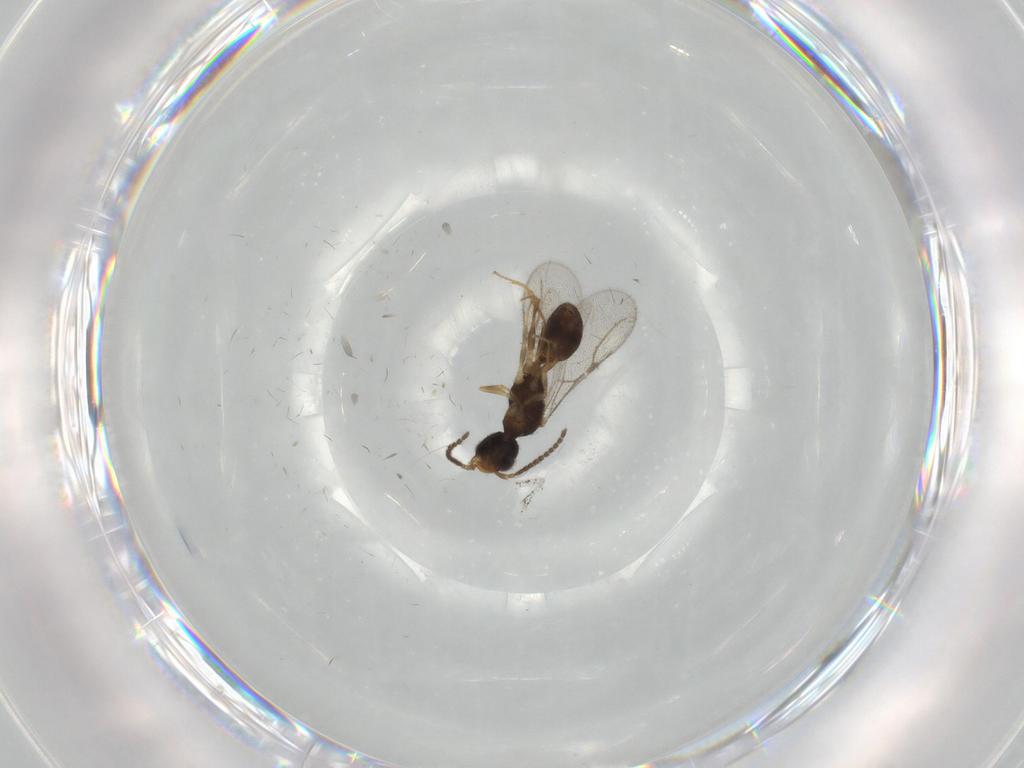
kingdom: Animalia
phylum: Arthropoda
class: Insecta
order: Hymenoptera
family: Bethylidae
